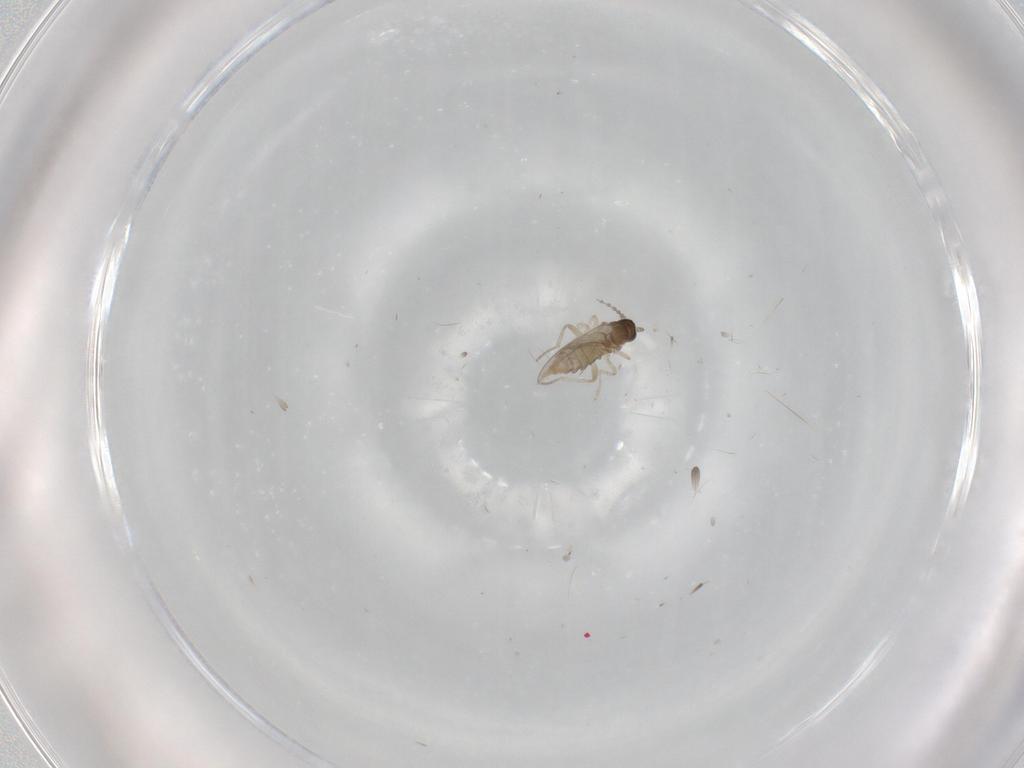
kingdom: Animalia
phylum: Arthropoda
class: Insecta
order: Diptera
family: Cecidomyiidae
